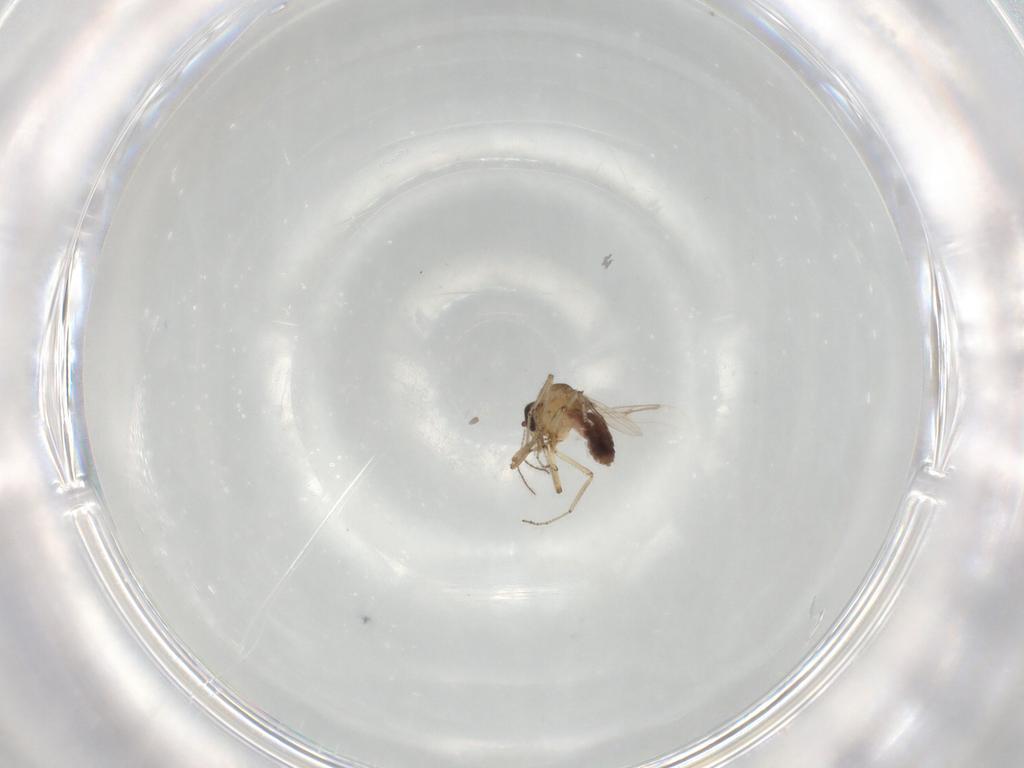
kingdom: Animalia
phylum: Arthropoda
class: Insecta
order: Diptera
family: Ceratopogonidae
